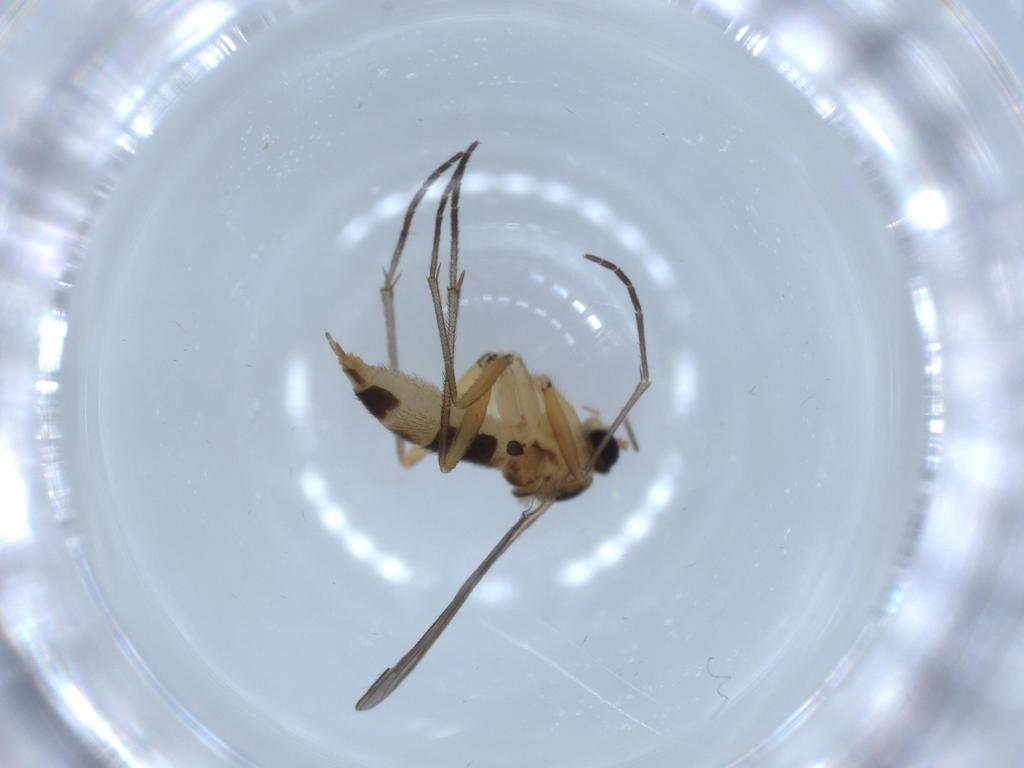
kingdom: Animalia
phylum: Arthropoda
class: Insecta
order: Diptera
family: Sciaridae
